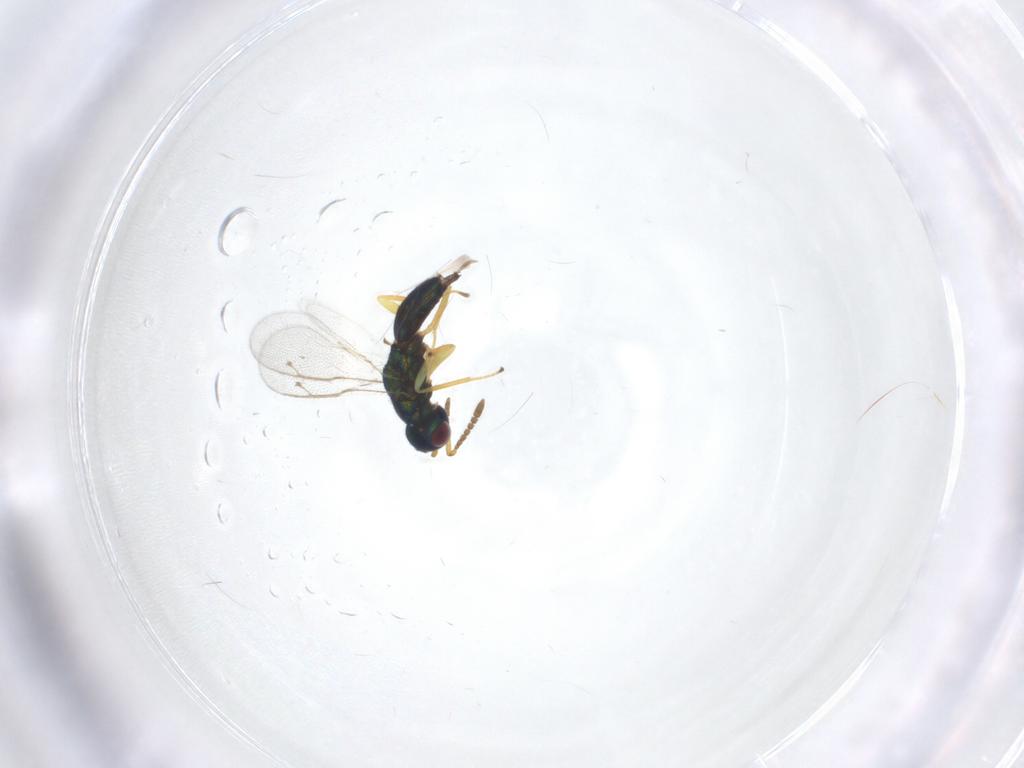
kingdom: Animalia
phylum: Arthropoda
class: Insecta
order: Hymenoptera
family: Pteromalidae
